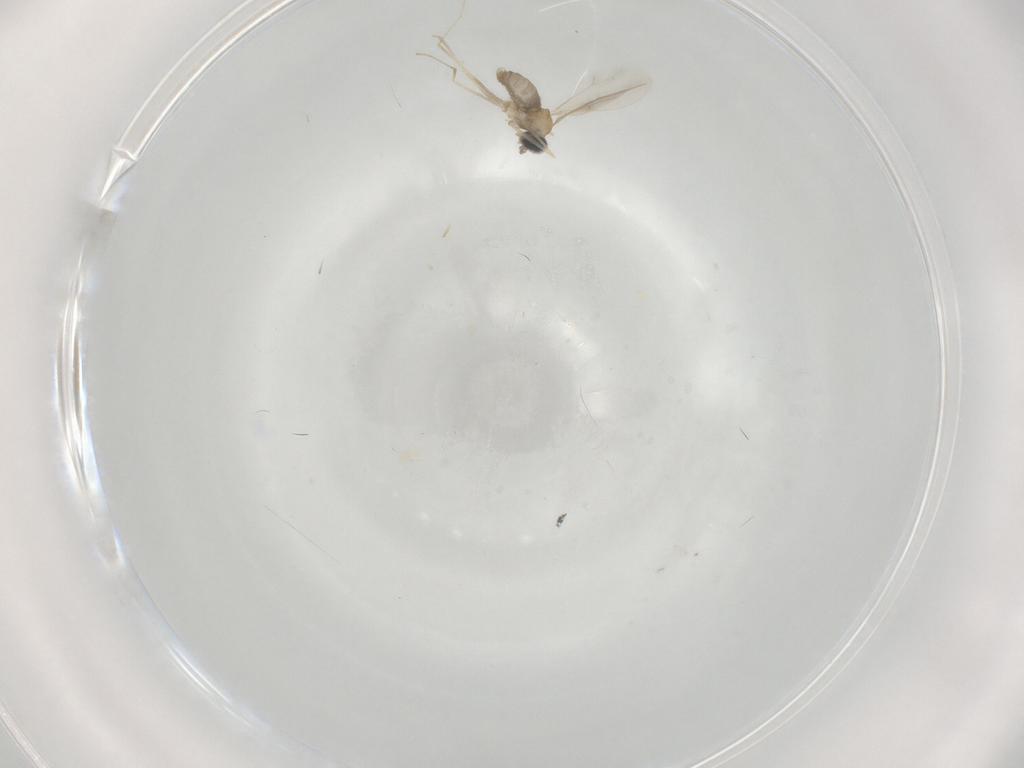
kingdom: Animalia
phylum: Arthropoda
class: Insecta
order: Diptera
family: Cecidomyiidae
